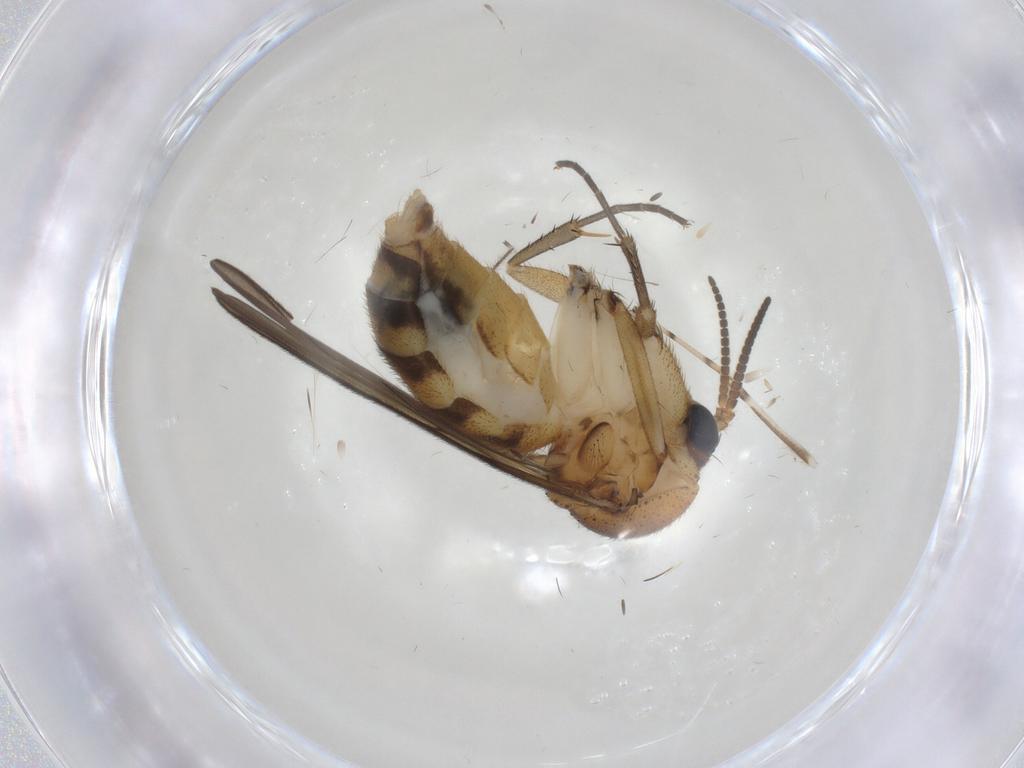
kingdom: Animalia
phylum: Arthropoda
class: Insecta
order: Diptera
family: Mycetophilidae
